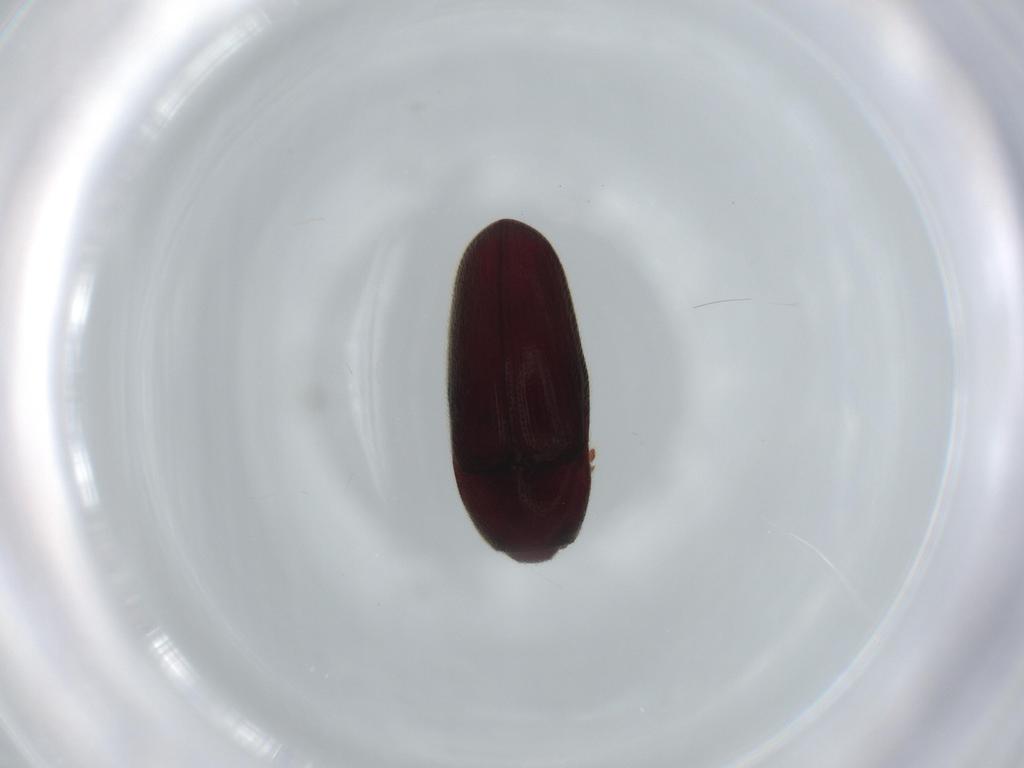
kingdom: Animalia
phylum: Arthropoda
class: Insecta
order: Coleoptera
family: Throscidae
